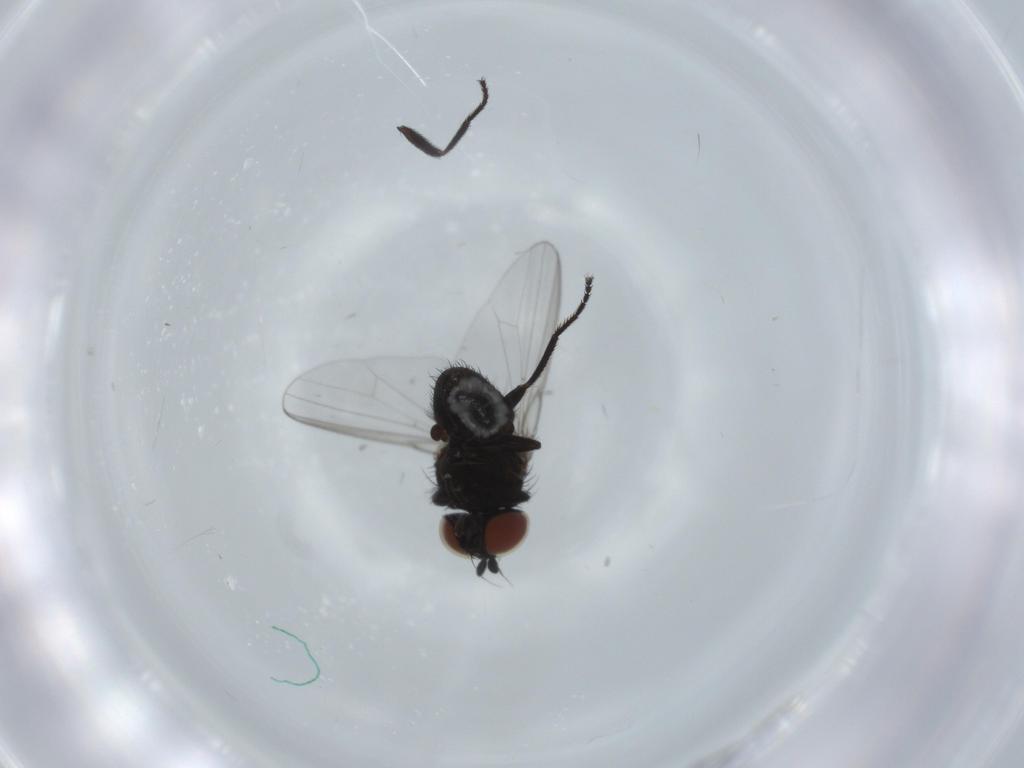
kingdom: Animalia
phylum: Arthropoda
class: Insecta
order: Diptera
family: Milichiidae
